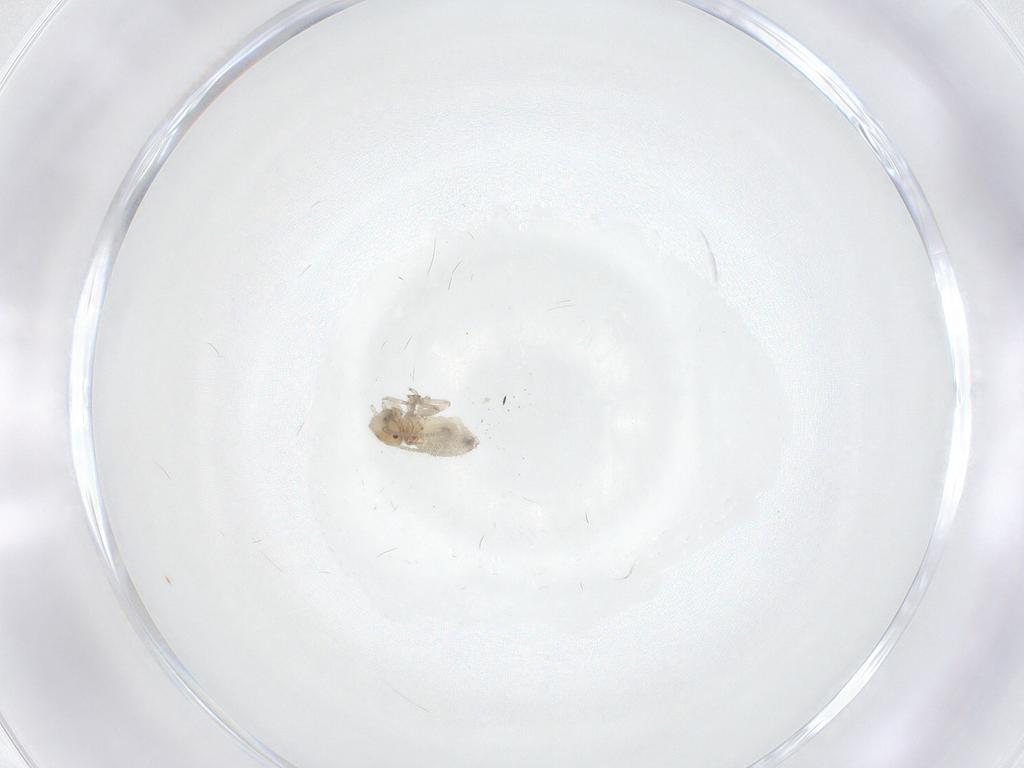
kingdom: Animalia
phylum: Arthropoda
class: Insecta
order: Psocodea
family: Caeciliusidae
